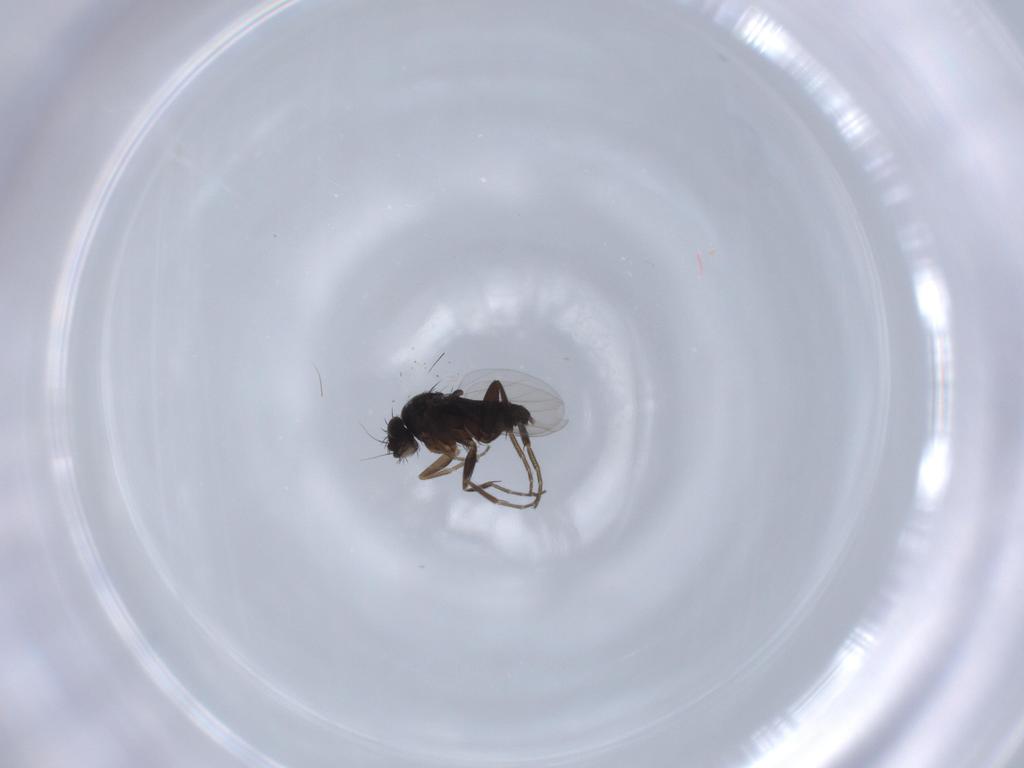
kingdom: Animalia
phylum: Arthropoda
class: Insecta
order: Diptera
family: Phoridae
